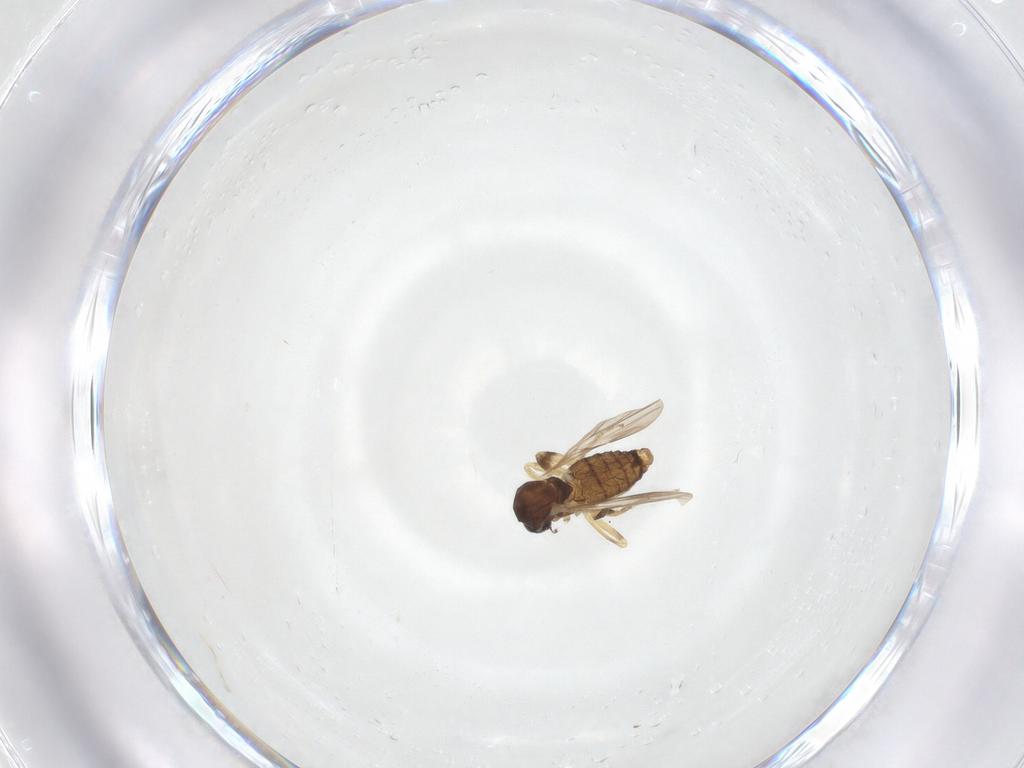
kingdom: Animalia
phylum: Arthropoda
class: Insecta
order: Diptera
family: Ceratopogonidae
